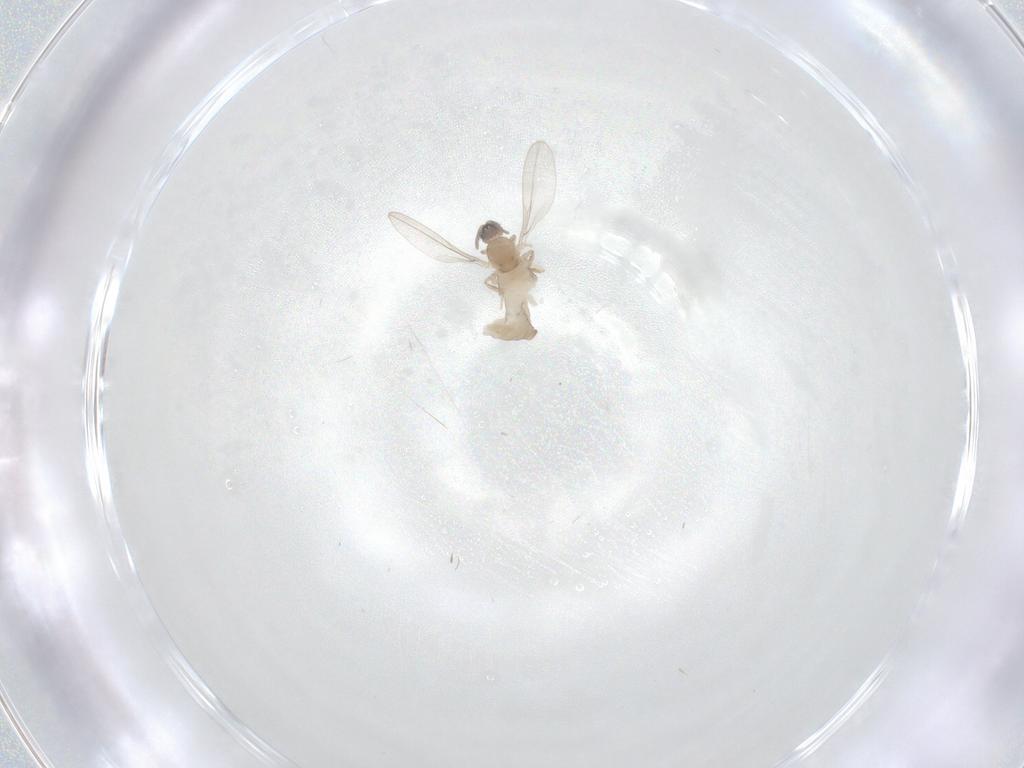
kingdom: Animalia
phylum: Arthropoda
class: Insecta
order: Diptera
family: Cecidomyiidae
